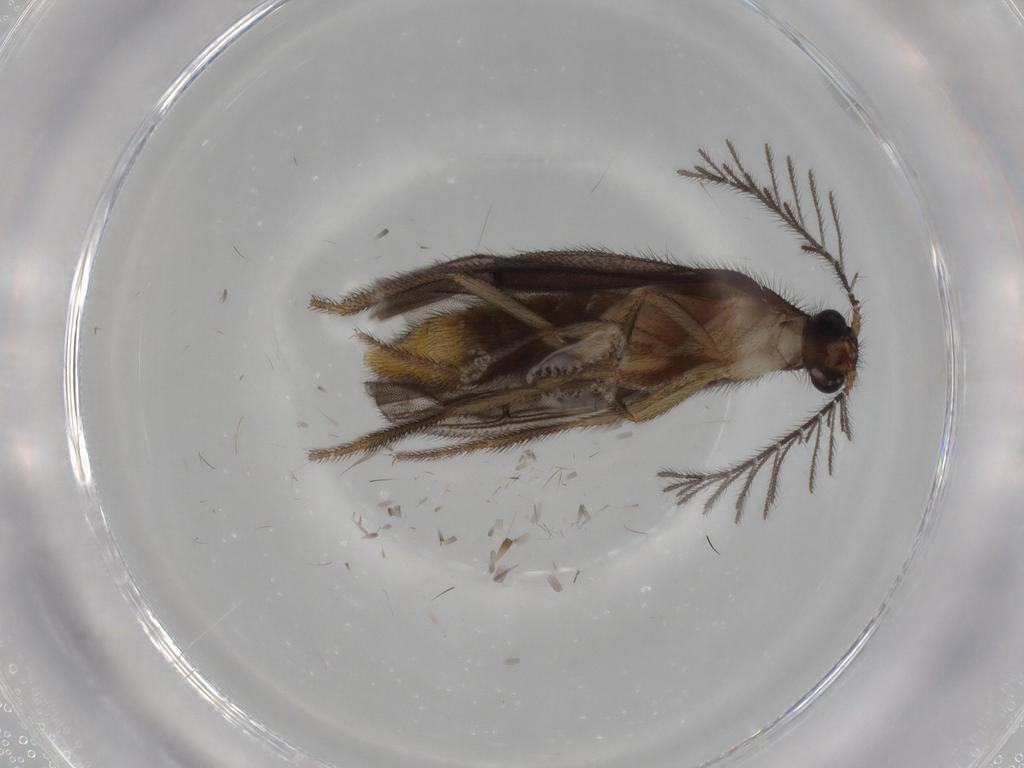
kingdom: Animalia
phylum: Arthropoda
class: Insecta
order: Coleoptera
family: Chrysomelidae
